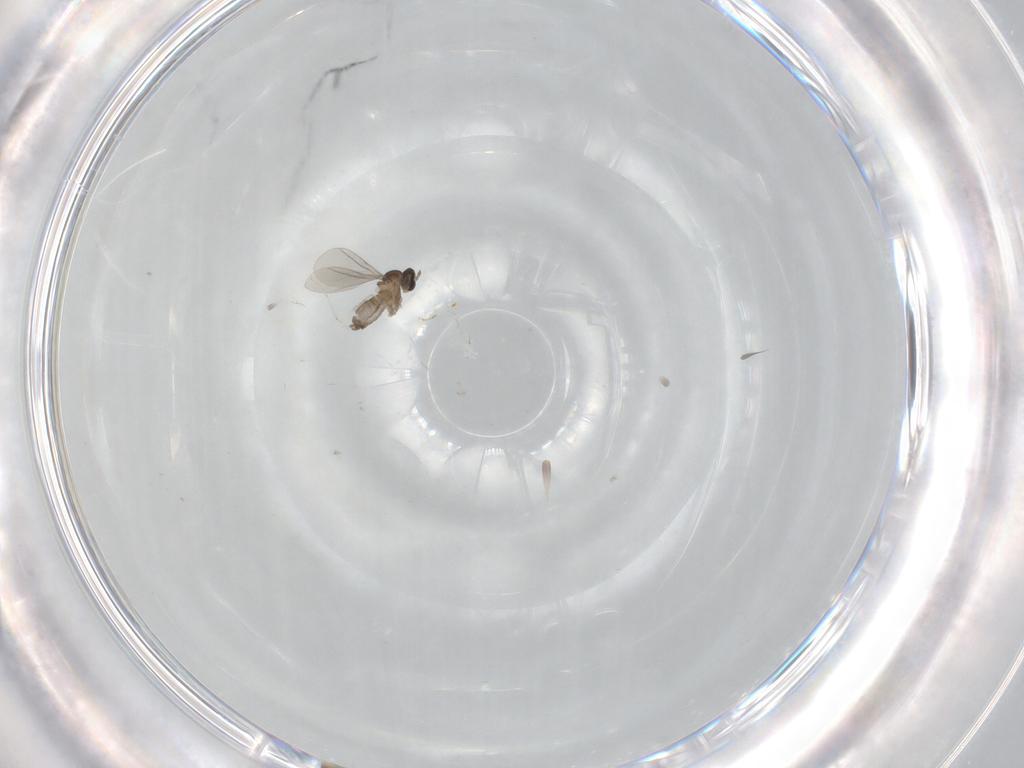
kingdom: Animalia
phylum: Arthropoda
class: Insecta
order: Diptera
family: Cecidomyiidae
